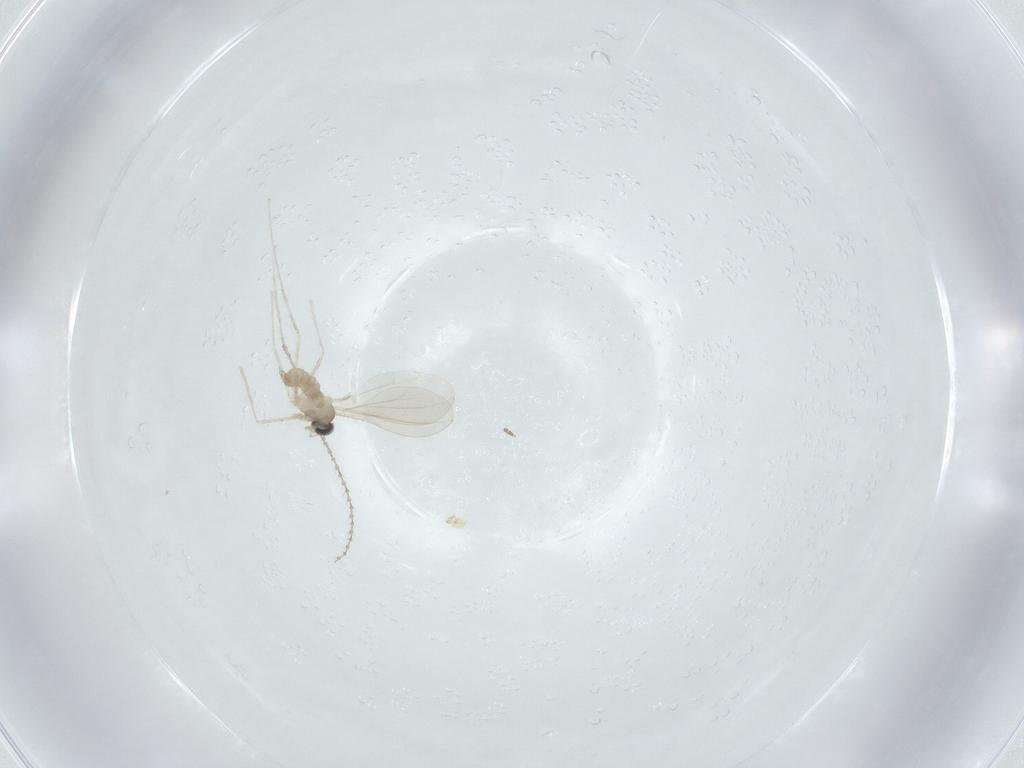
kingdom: Animalia
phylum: Arthropoda
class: Insecta
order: Diptera
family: Cecidomyiidae
